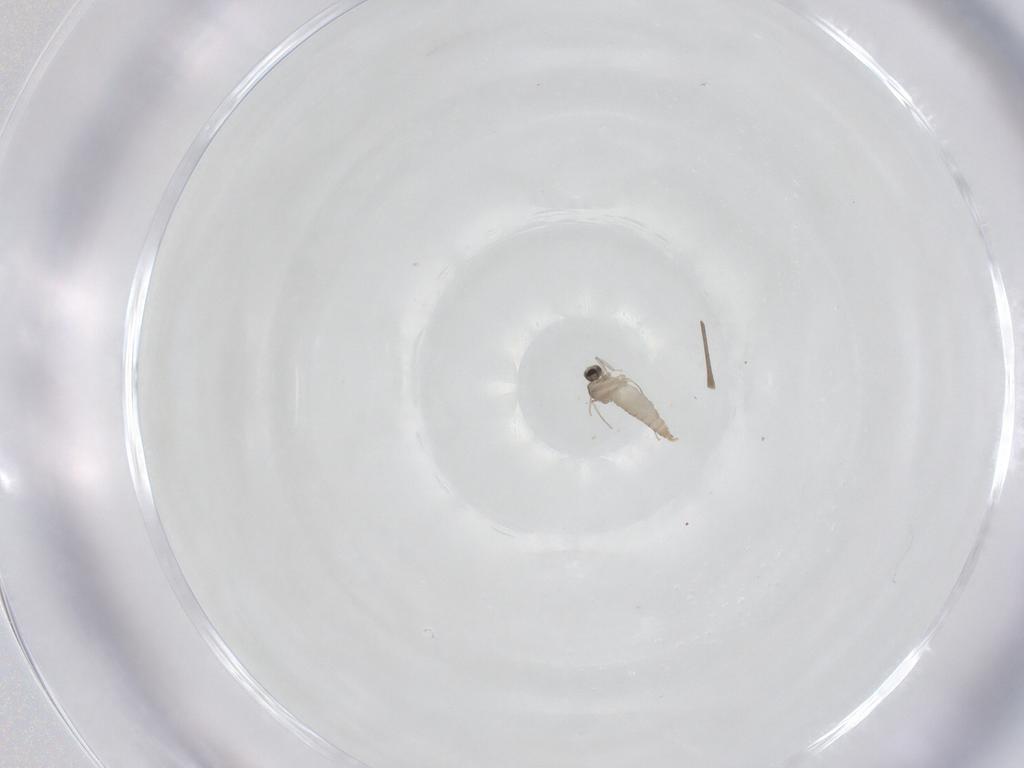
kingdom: Animalia
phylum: Arthropoda
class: Insecta
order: Diptera
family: Cecidomyiidae
